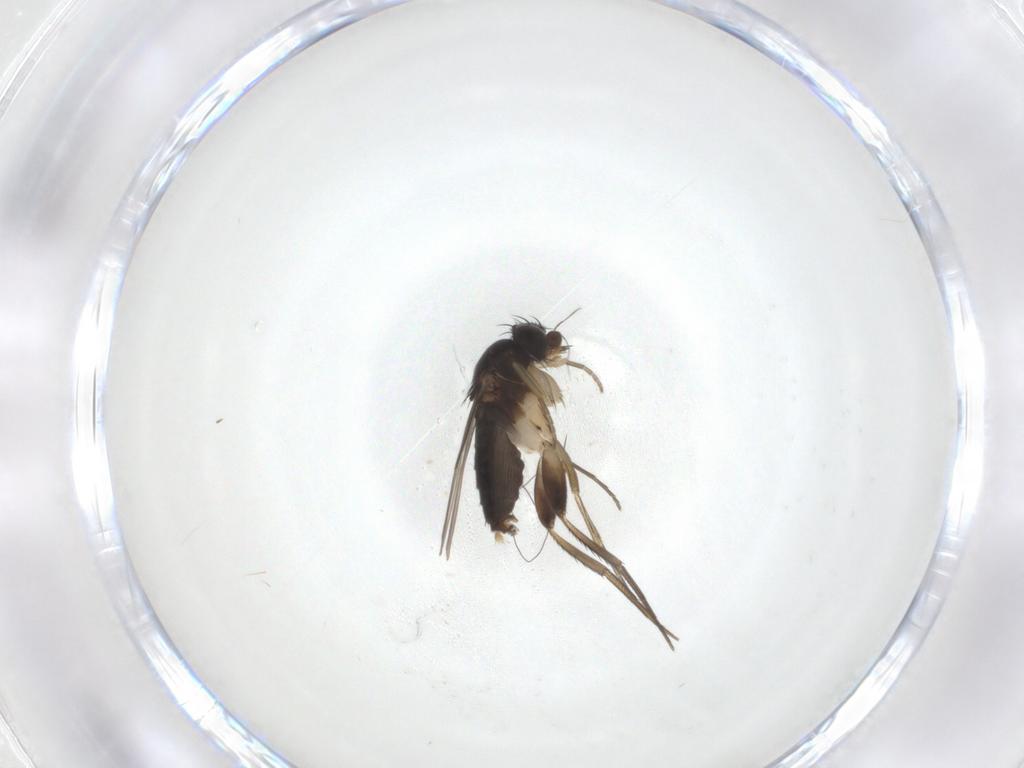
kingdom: Animalia
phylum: Arthropoda
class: Insecta
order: Diptera
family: Phoridae
